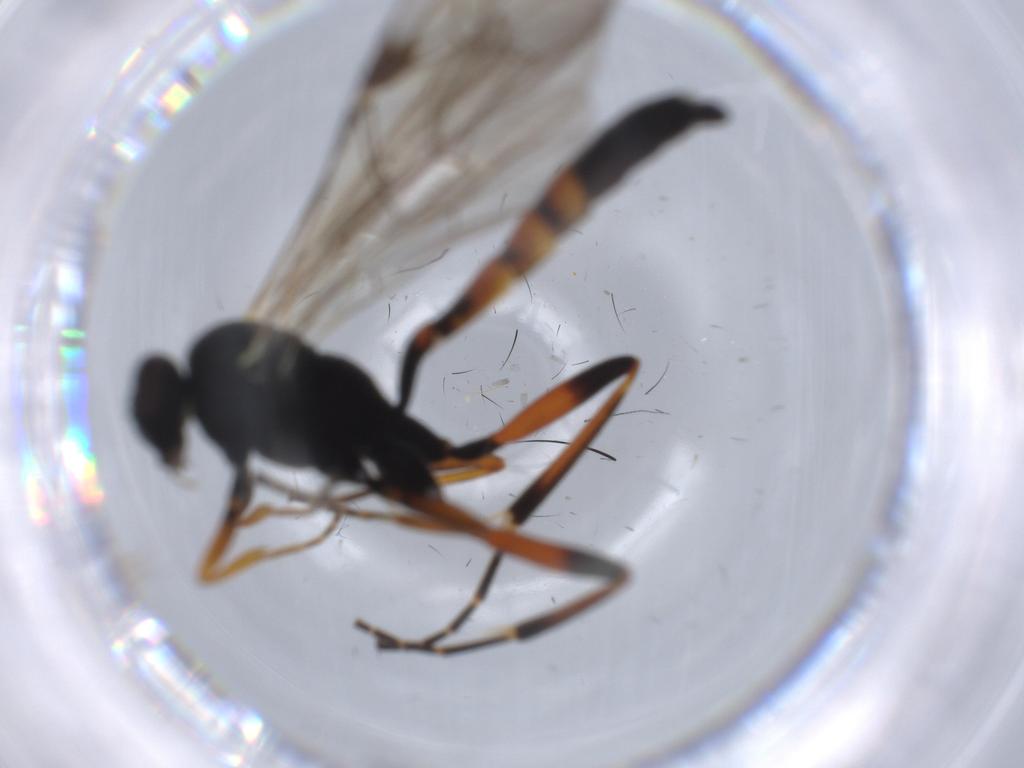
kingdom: Animalia
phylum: Arthropoda
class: Insecta
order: Hymenoptera
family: Ichneumonidae
